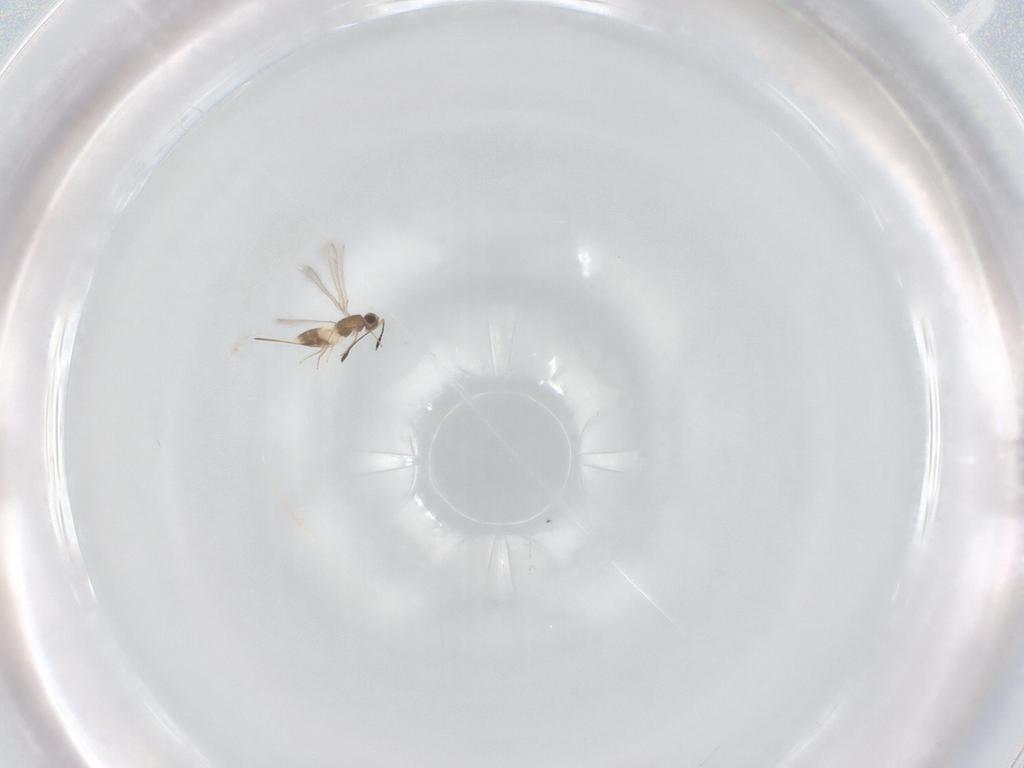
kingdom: Animalia
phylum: Arthropoda
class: Insecta
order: Hymenoptera
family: Mymaridae
